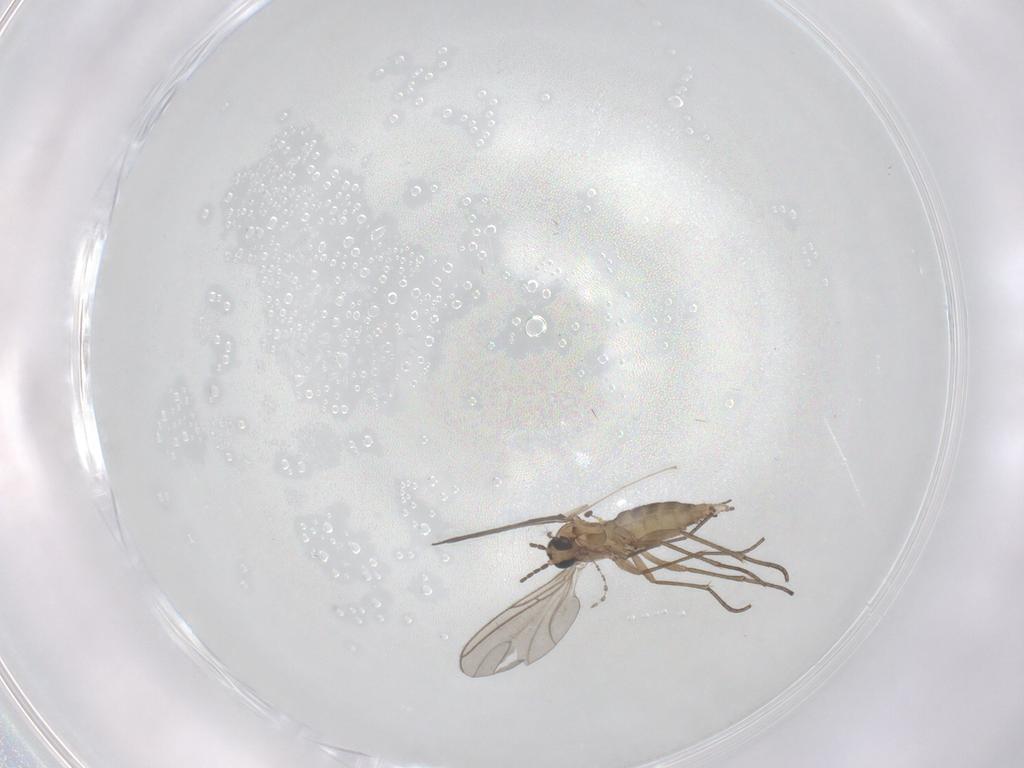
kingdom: Animalia
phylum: Arthropoda
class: Insecta
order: Diptera
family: Sciaridae
